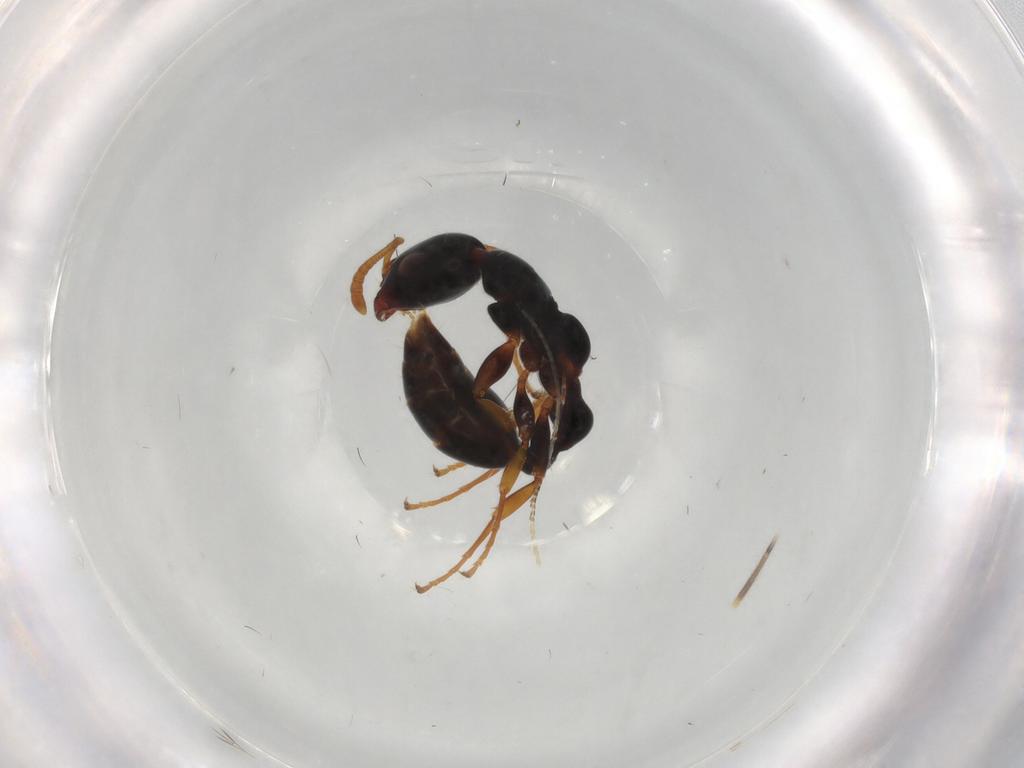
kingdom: Animalia
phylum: Arthropoda
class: Insecta
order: Hymenoptera
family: Formicidae
